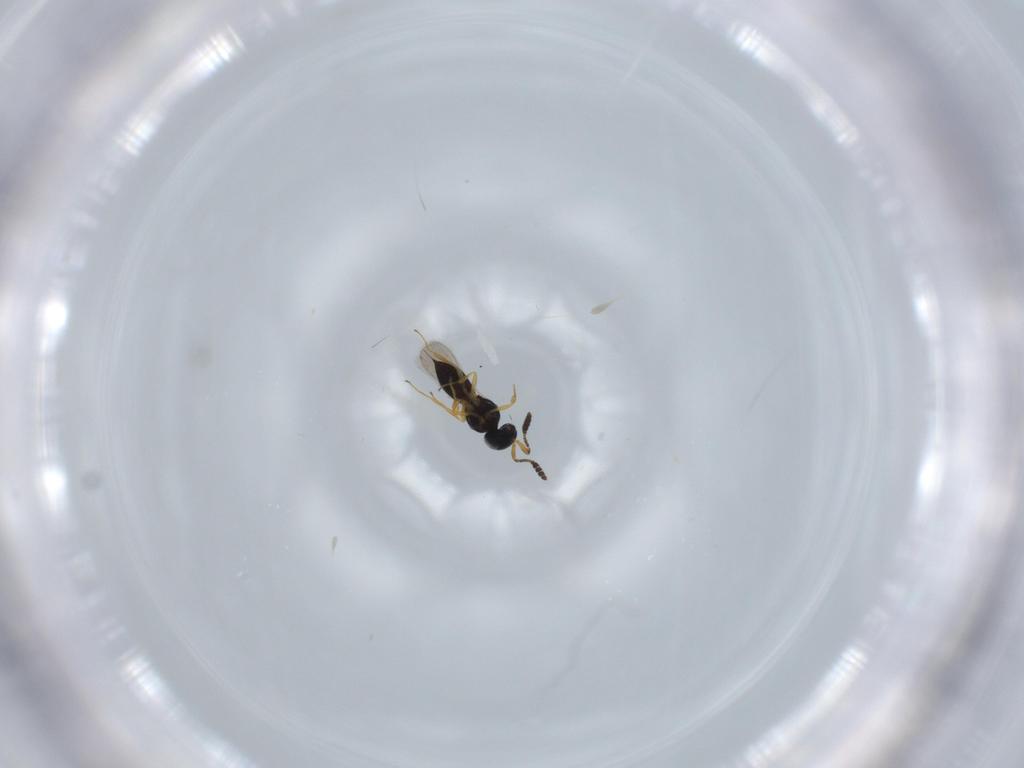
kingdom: Animalia
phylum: Arthropoda
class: Insecta
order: Hymenoptera
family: Scelionidae
